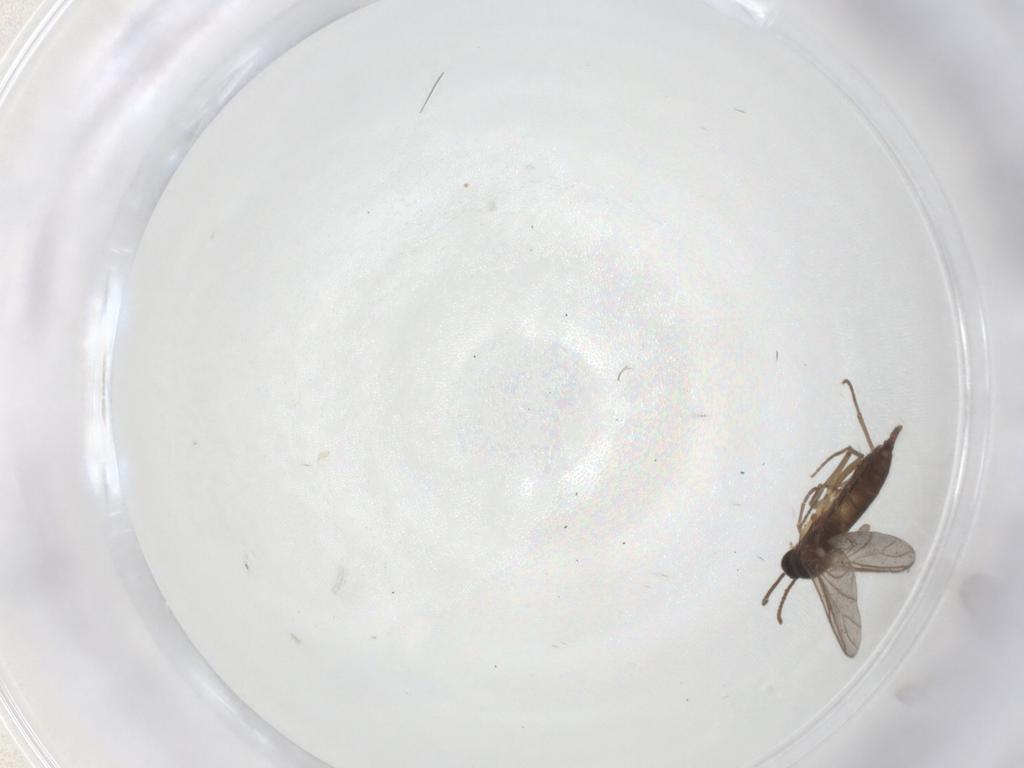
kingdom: Animalia
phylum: Arthropoda
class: Insecta
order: Diptera
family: Sciaridae
